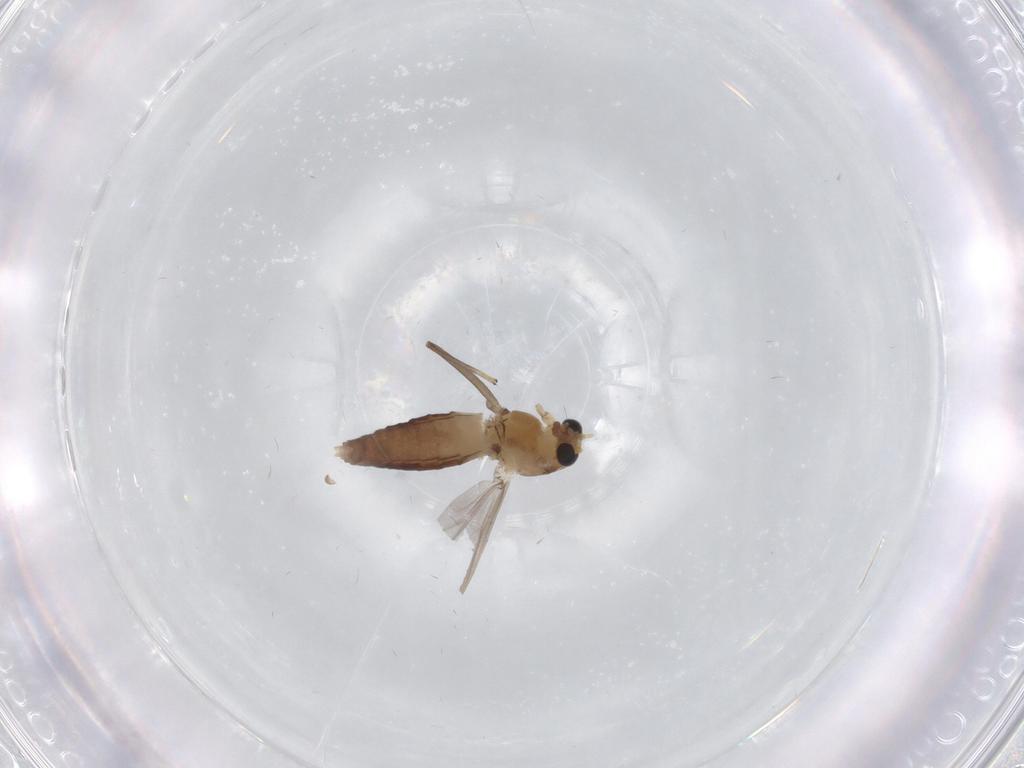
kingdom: Animalia
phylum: Arthropoda
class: Insecta
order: Diptera
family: Chironomidae
